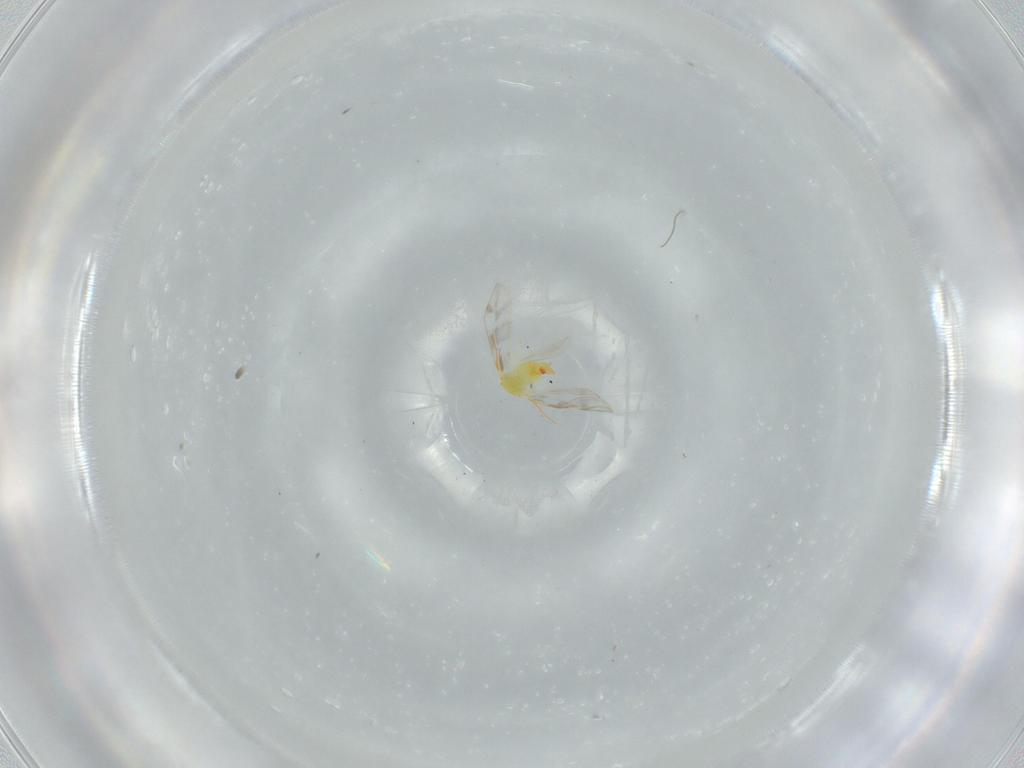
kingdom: Animalia
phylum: Arthropoda
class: Insecta
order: Hemiptera
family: Aleyrodidae
